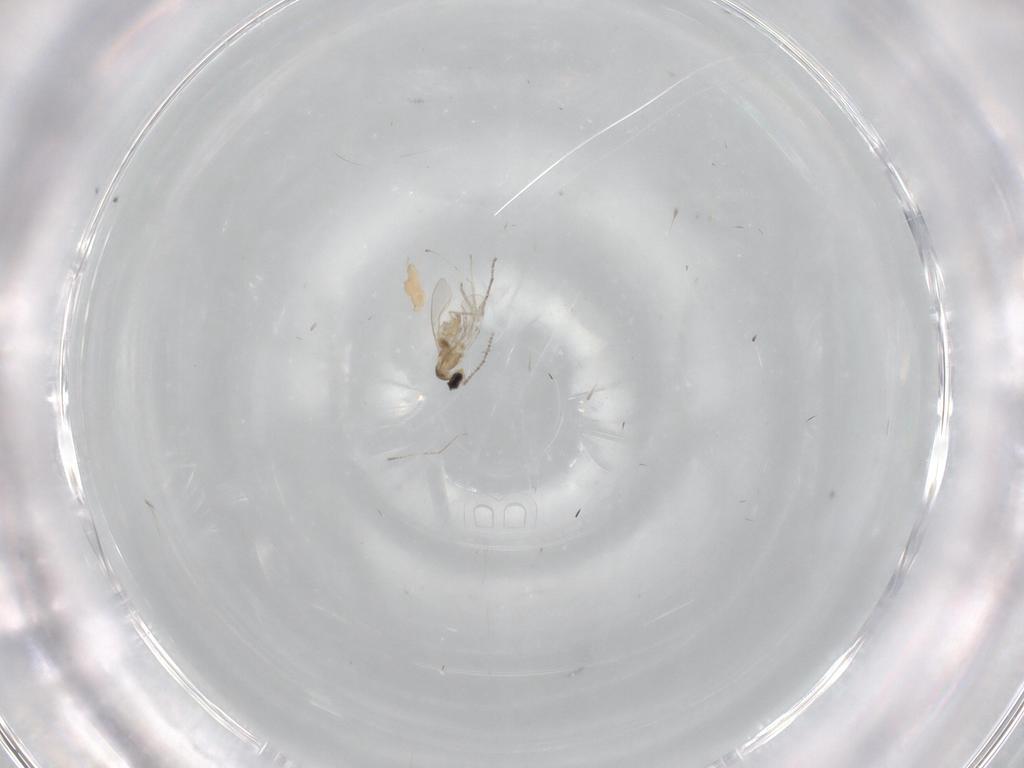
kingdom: Animalia
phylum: Arthropoda
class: Insecta
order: Diptera
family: Cecidomyiidae
